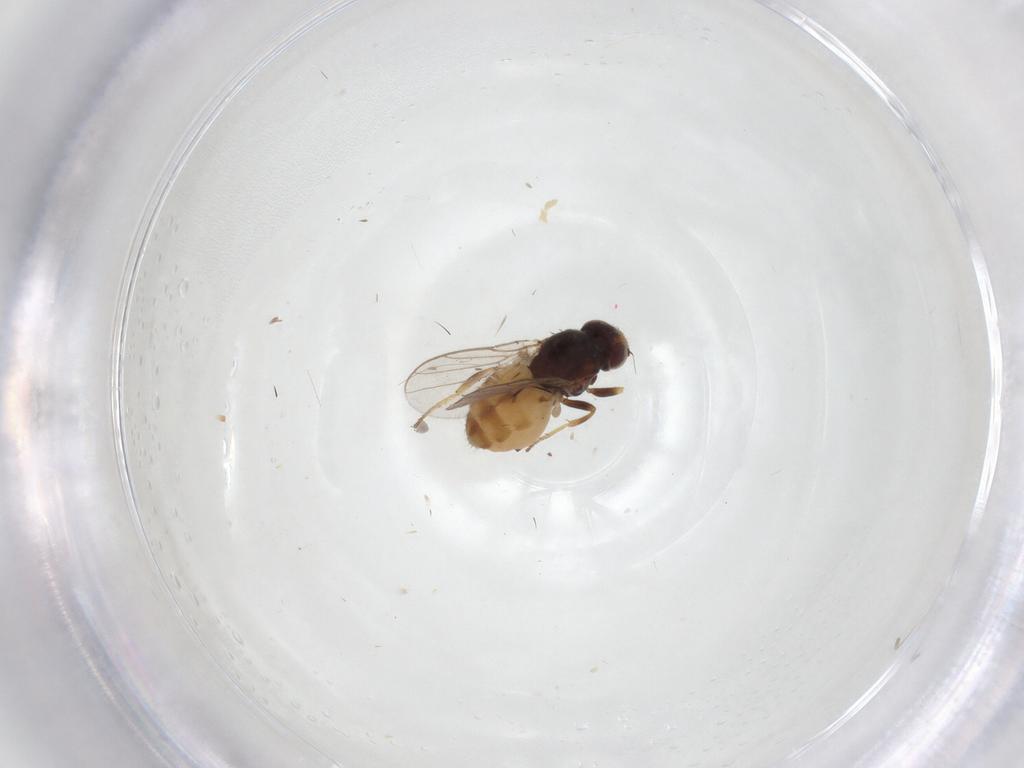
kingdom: Animalia
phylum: Arthropoda
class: Insecta
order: Diptera
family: Chloropidae
